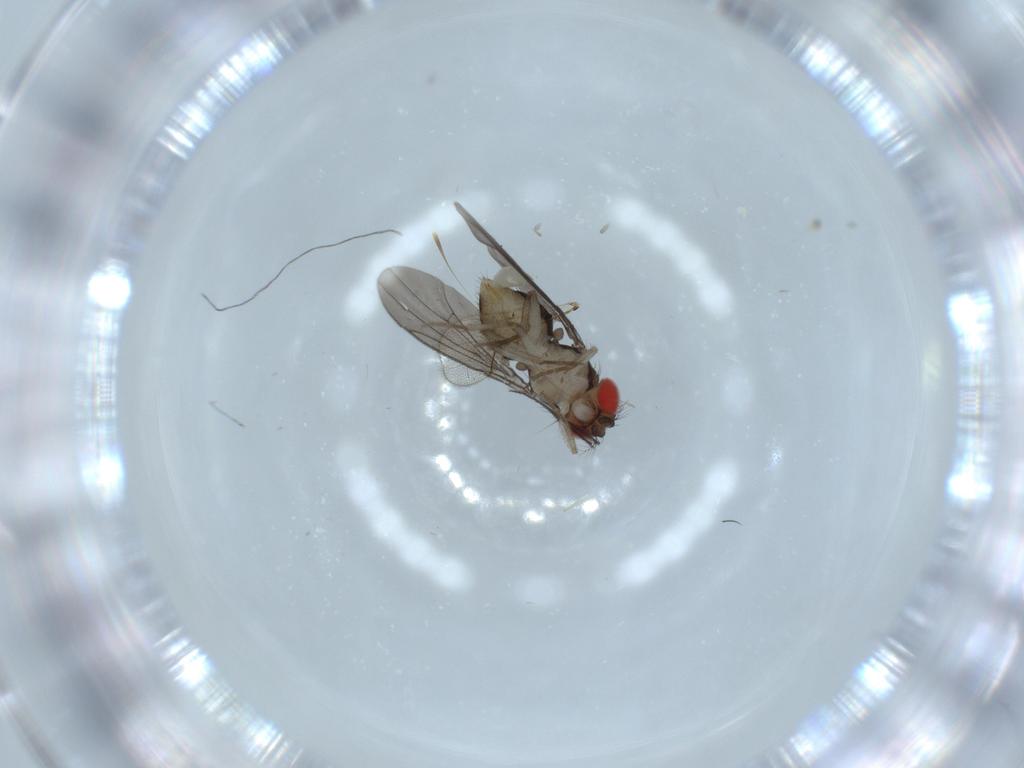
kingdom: Animalia
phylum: Arthropoda
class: Insecta
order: Diptera
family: Drosophilidae
